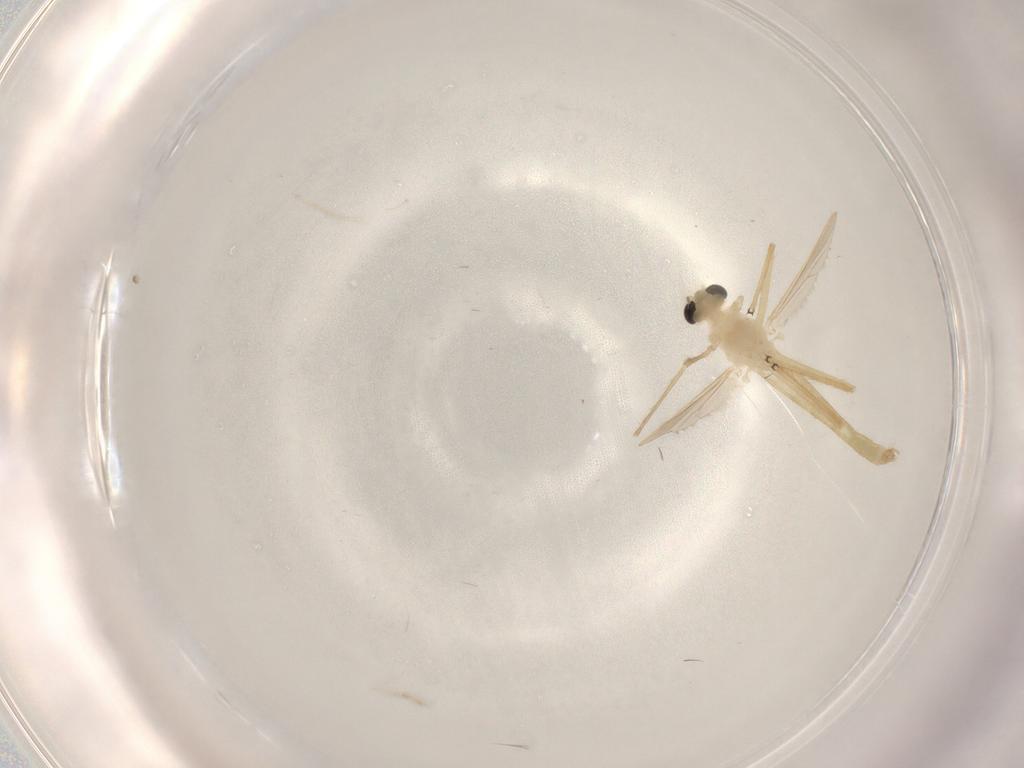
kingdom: Animalia
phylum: Arthropoda
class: Insecta
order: Diptera
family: Chironomidae
